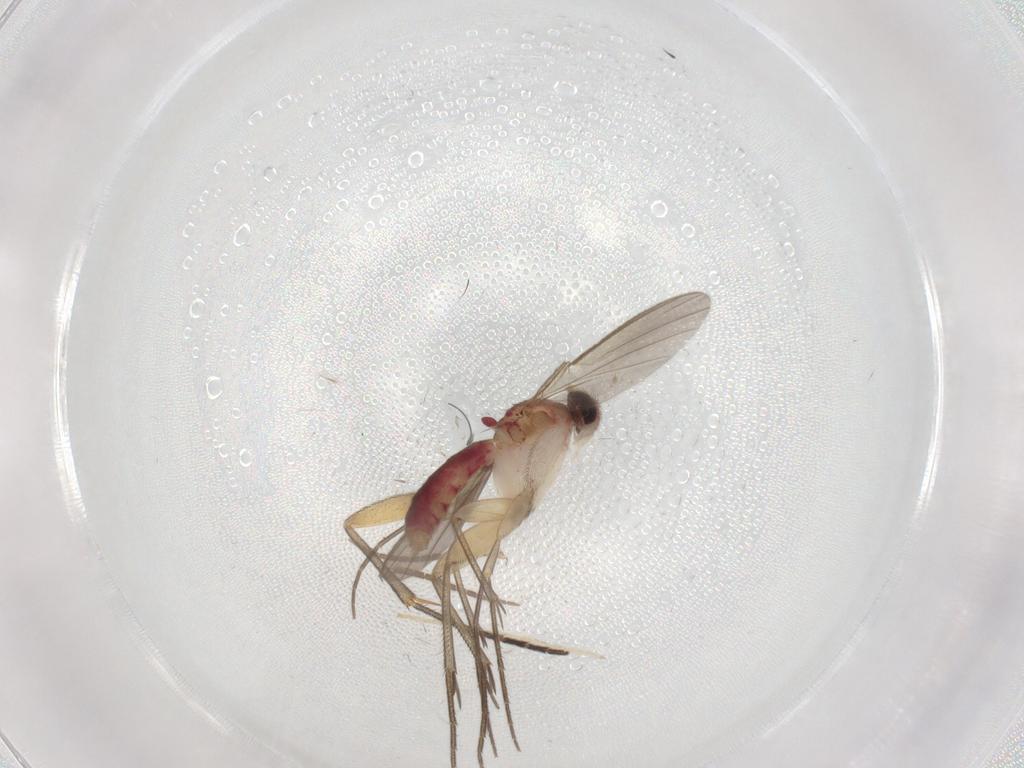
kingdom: Animalia
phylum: Arthropoda
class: Insecta
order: Diptera
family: Mycetophilidae
